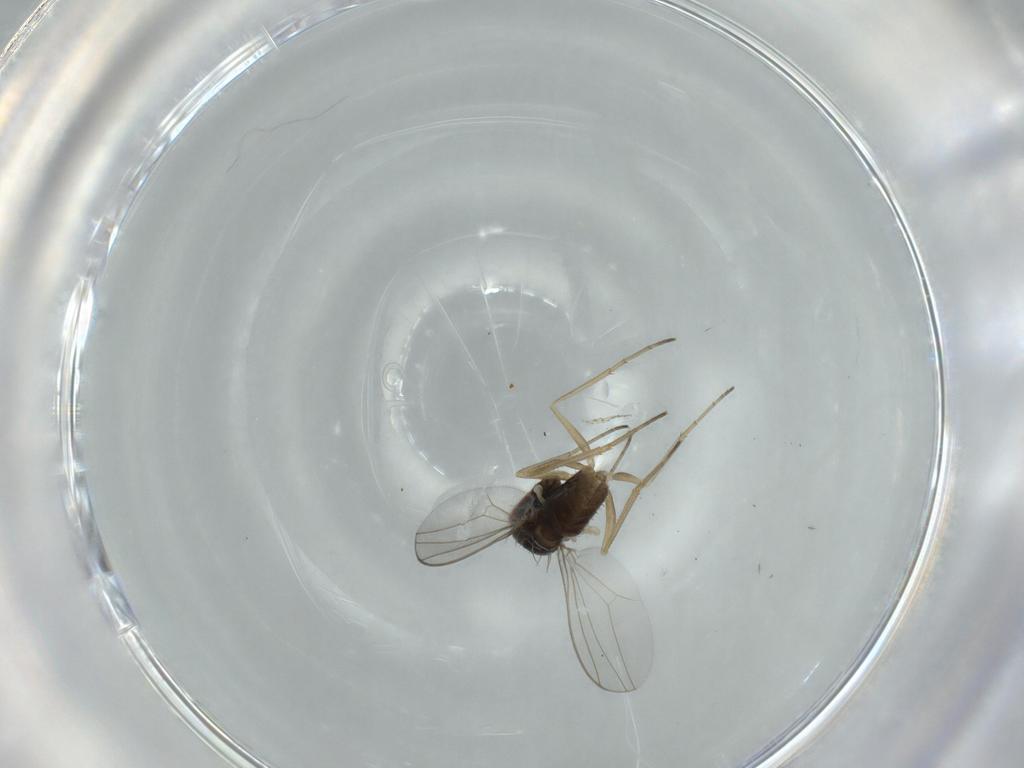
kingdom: Animalia
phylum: Arthropoda
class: Insecta
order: Diptera
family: Dolichopodidae
